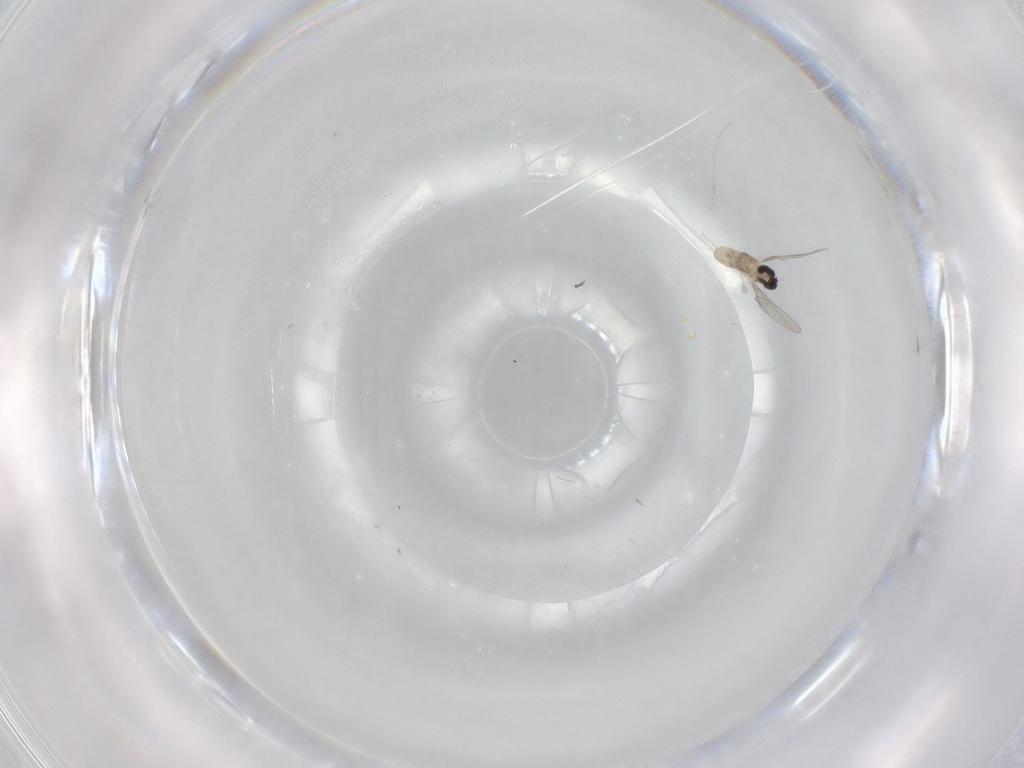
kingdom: Animalia
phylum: Arthropoda
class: Insecta
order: Diptera
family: Cecidomyiidae
